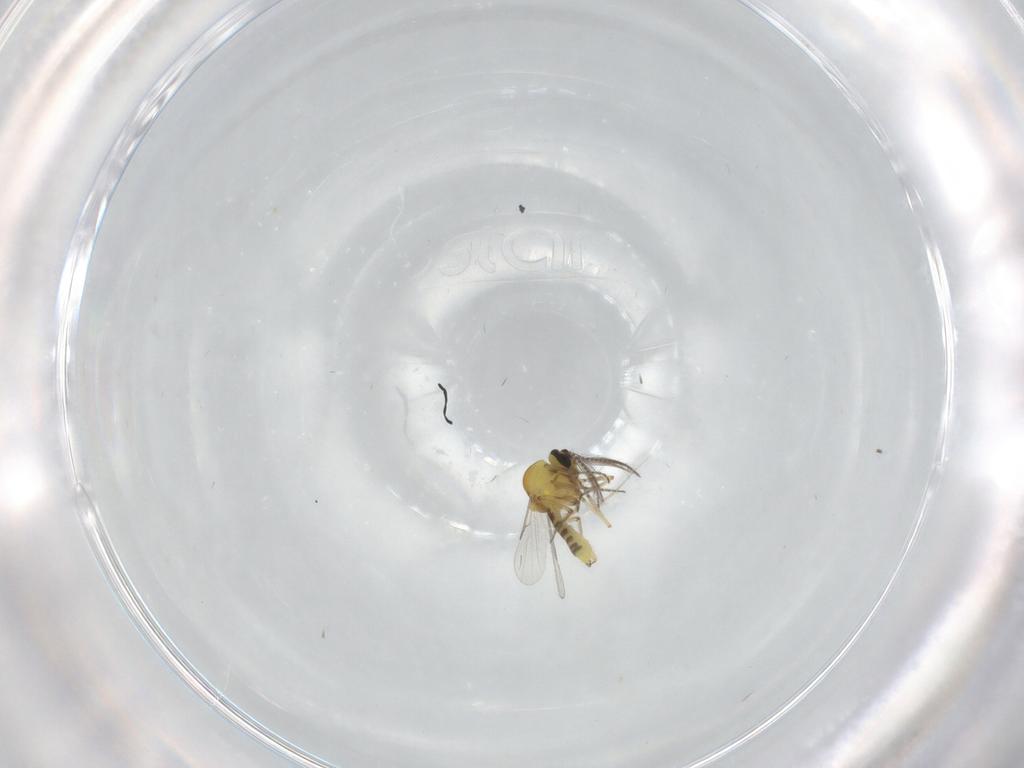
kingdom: Animalia
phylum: Arthropoda
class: Insecta
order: Diptera
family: Ceratopogonidae
